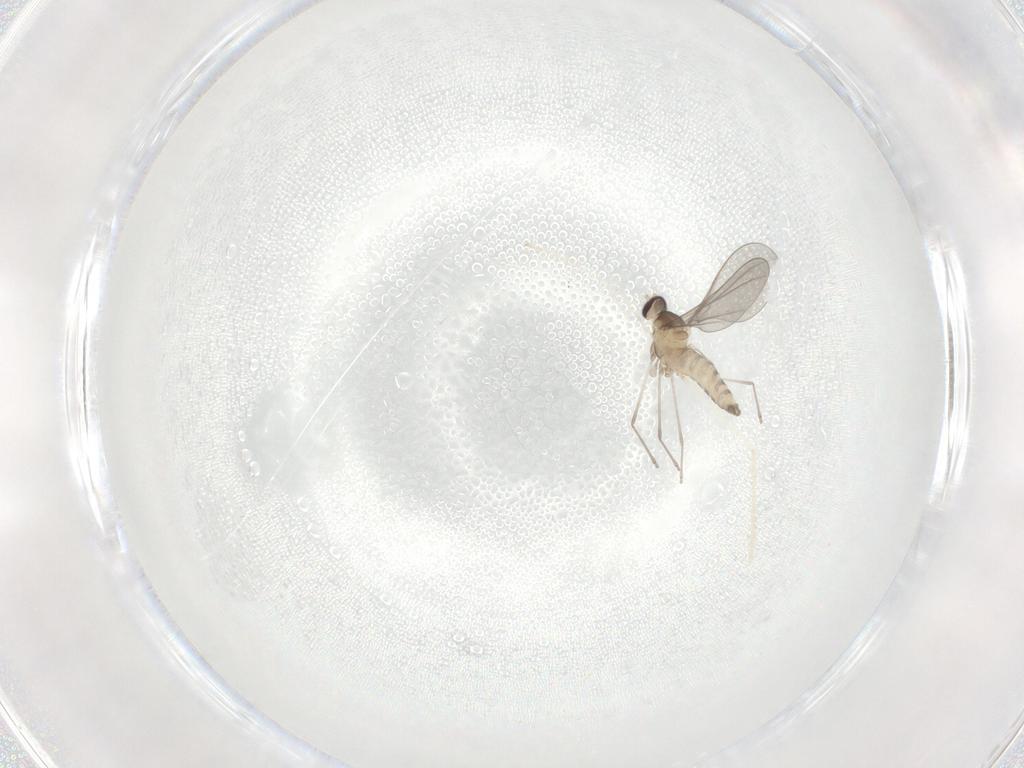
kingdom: Animalia
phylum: Arthropoda
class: Insecta
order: Diptera
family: Cecidomyiidae
